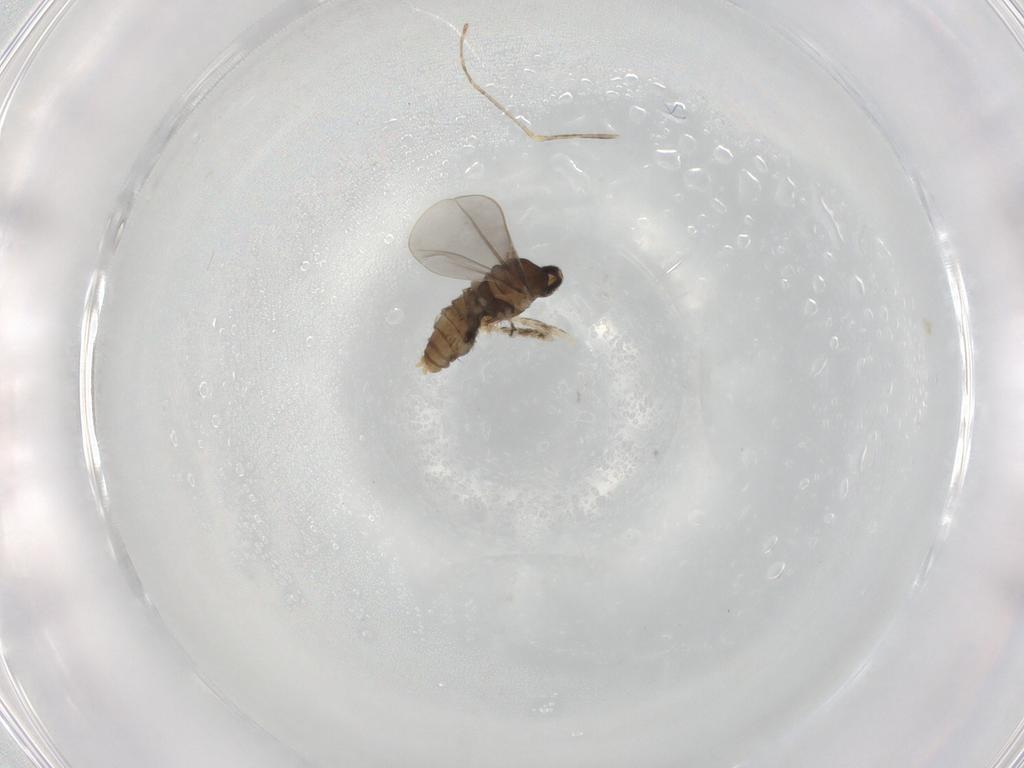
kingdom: Animalia
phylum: Arthropoda
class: Insecta
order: Diptera
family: Cecidomyiidae
